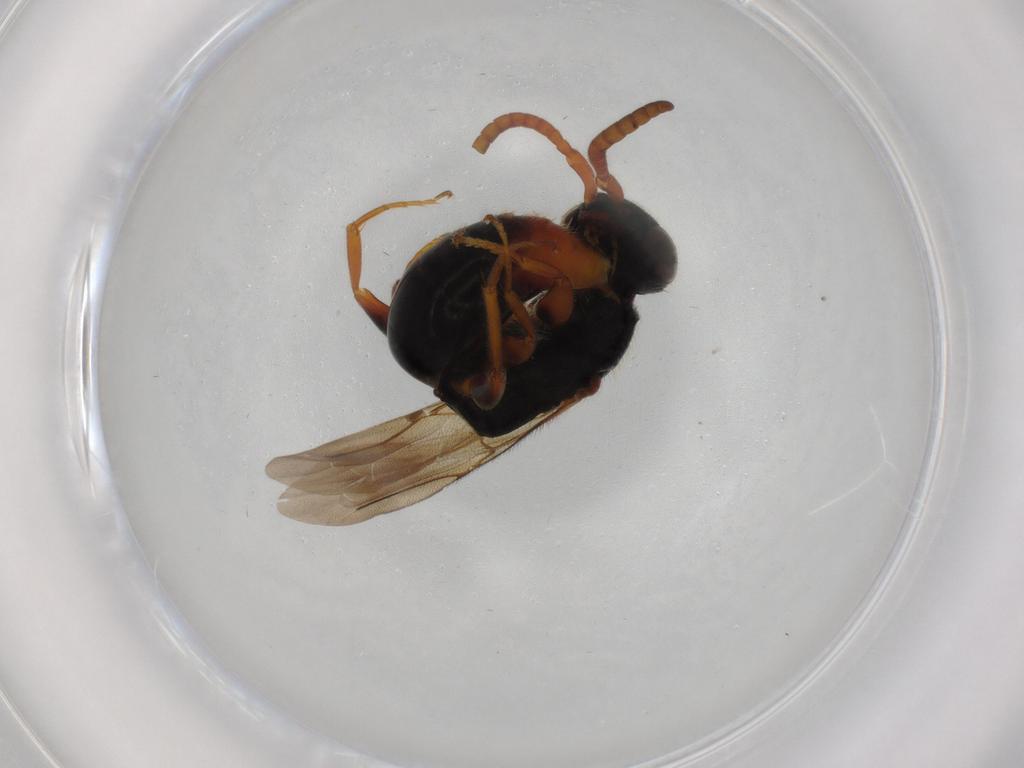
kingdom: Animalia
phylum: Arthropoda
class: Insecta
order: Hymenoptera
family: Bethylidae
